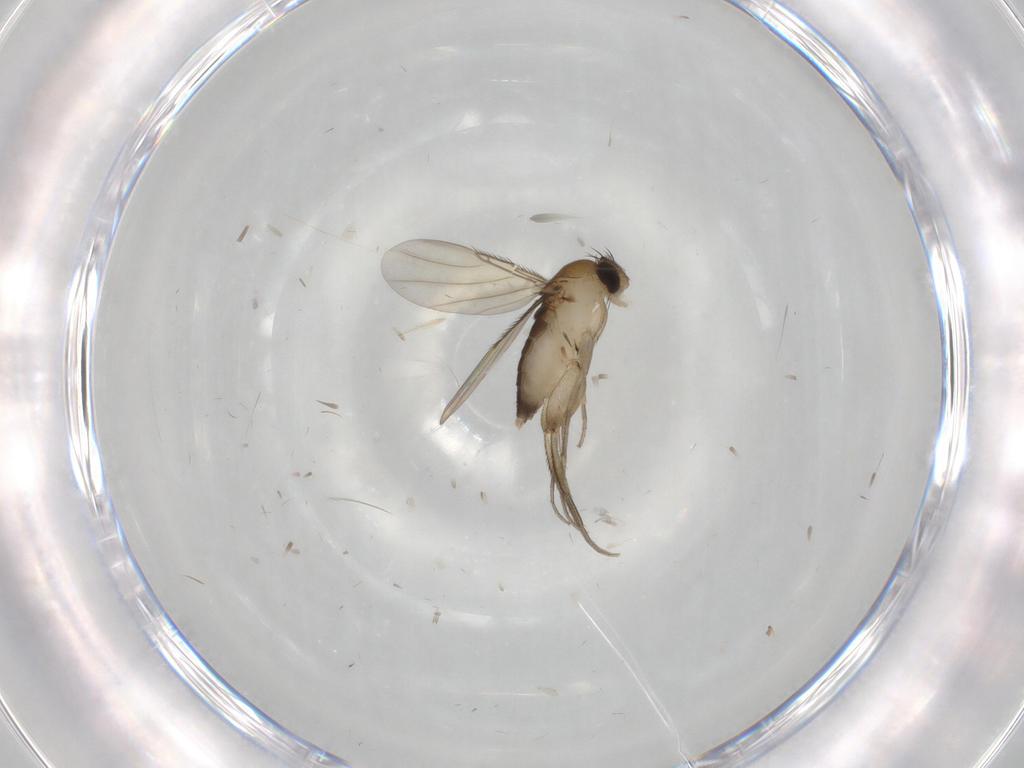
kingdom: Animalia
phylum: Arthropoda
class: Insecta
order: Diptera
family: Phoridae
